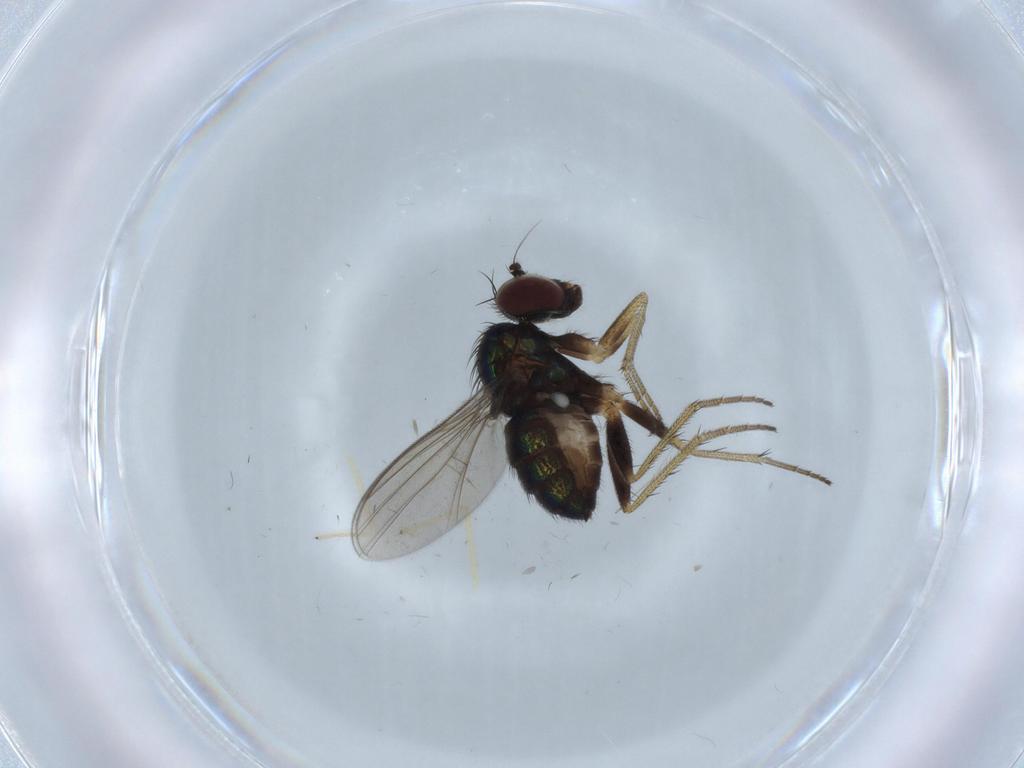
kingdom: Animalia
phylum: Arthropoda
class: Insecta
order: Diptera
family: Chironomidae
